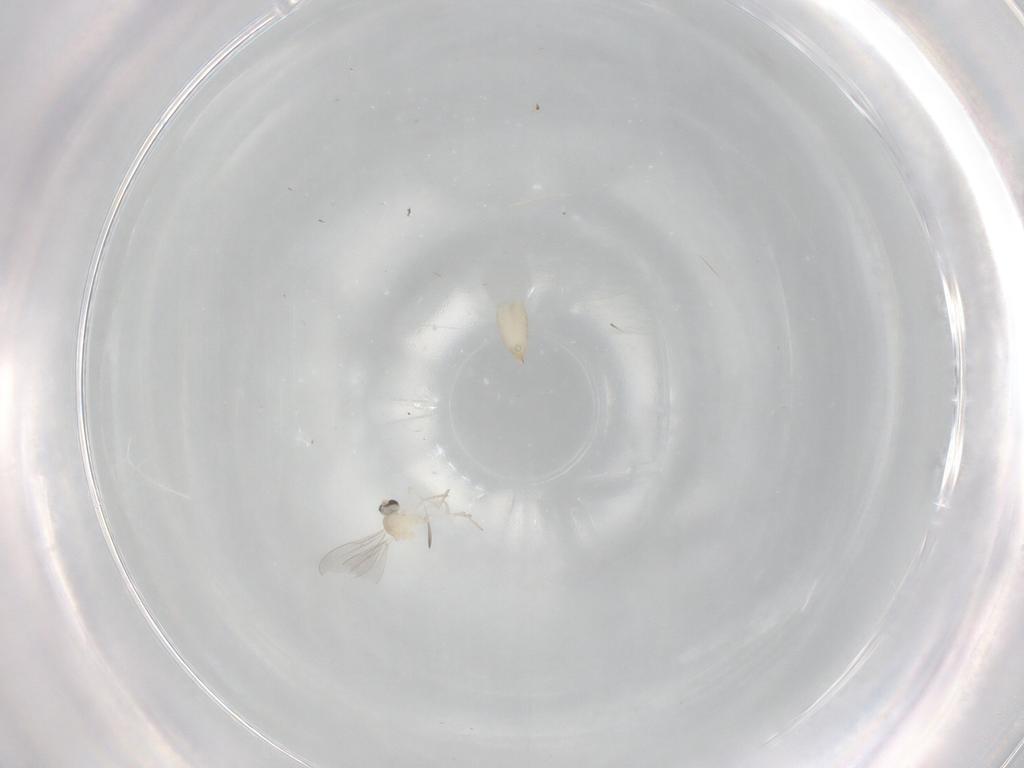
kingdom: Animalia
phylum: Arthropoda
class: Insecta
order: Diptera
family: Cecidomyiidae
